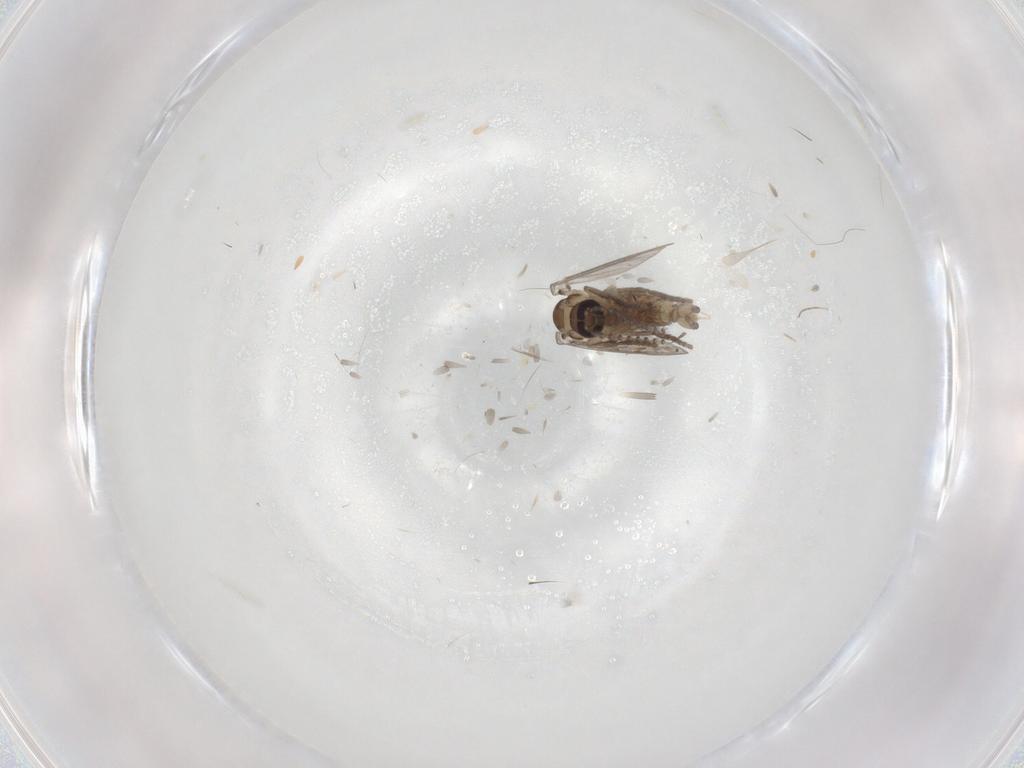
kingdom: Animalia
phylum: Arthropoda
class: Insecta
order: Diptera
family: Psychodidae
